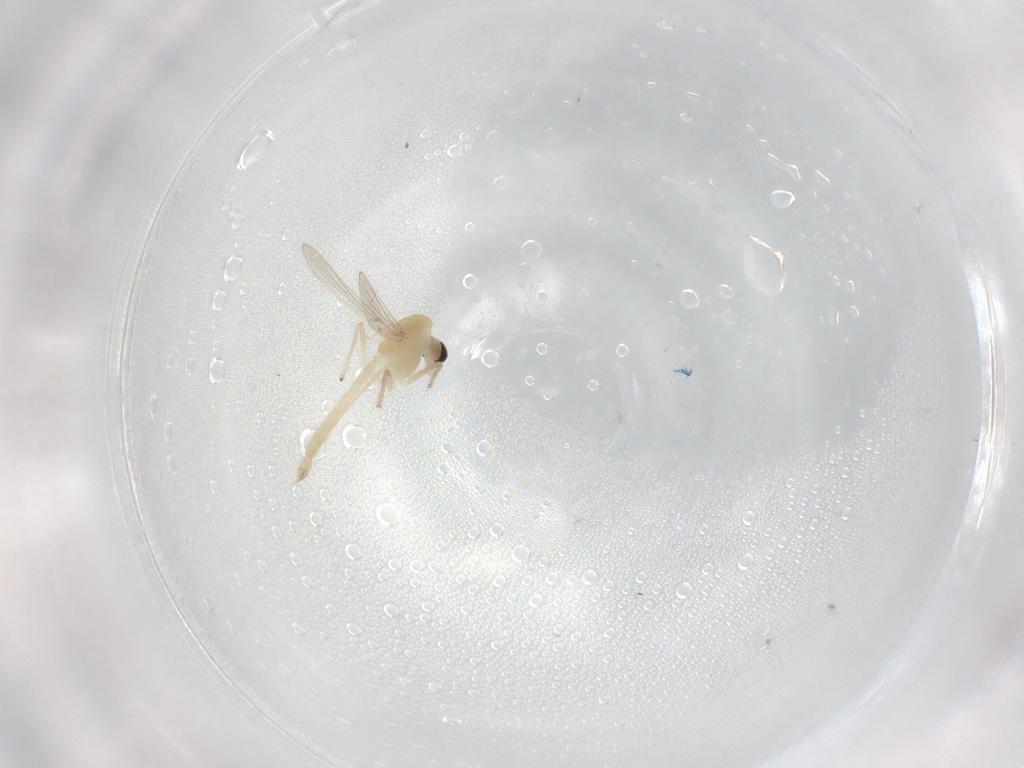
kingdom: Animalia
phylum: Arthropoda
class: Insecta
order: Diptera
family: Chironomidae
